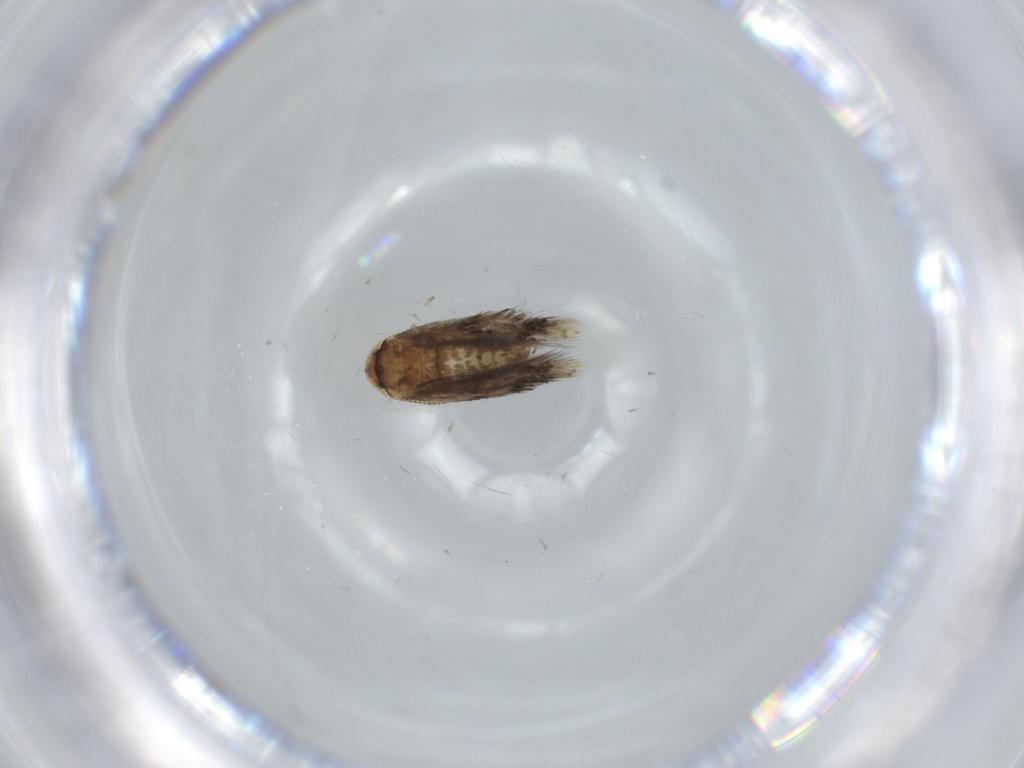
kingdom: Animalia
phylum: Arthropoda
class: Insecta
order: Lepidoptera
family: Nepticulidae
